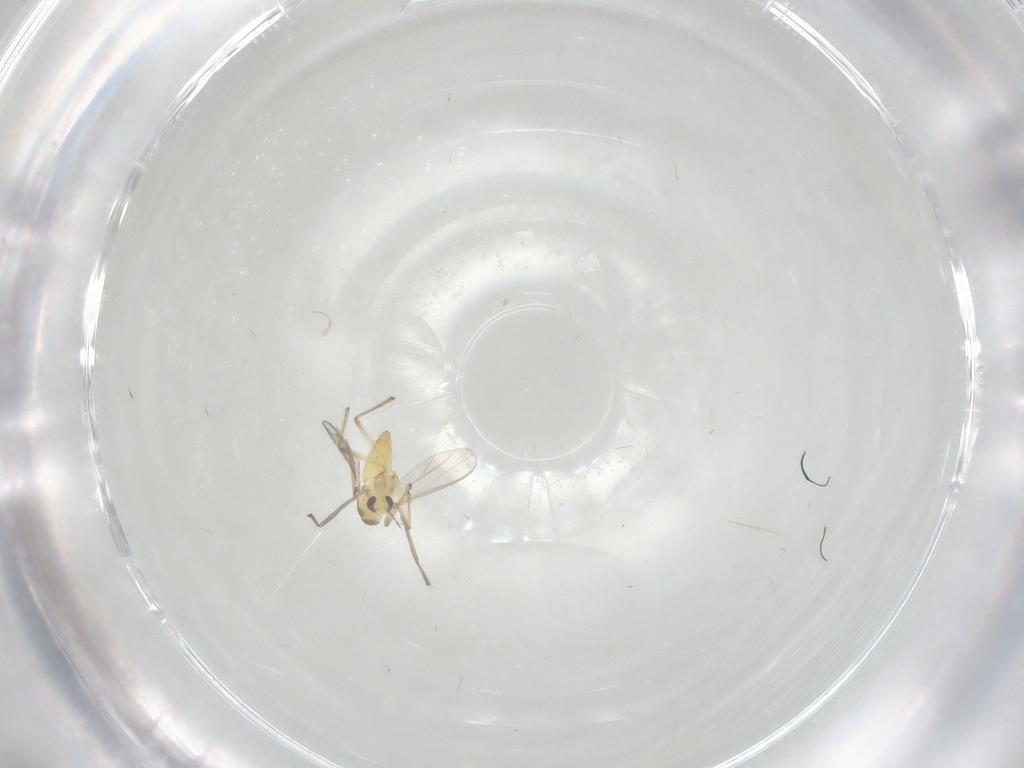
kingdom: Animalia
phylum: Arthropoda
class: Insecta
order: Diptera
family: Chironomidae
